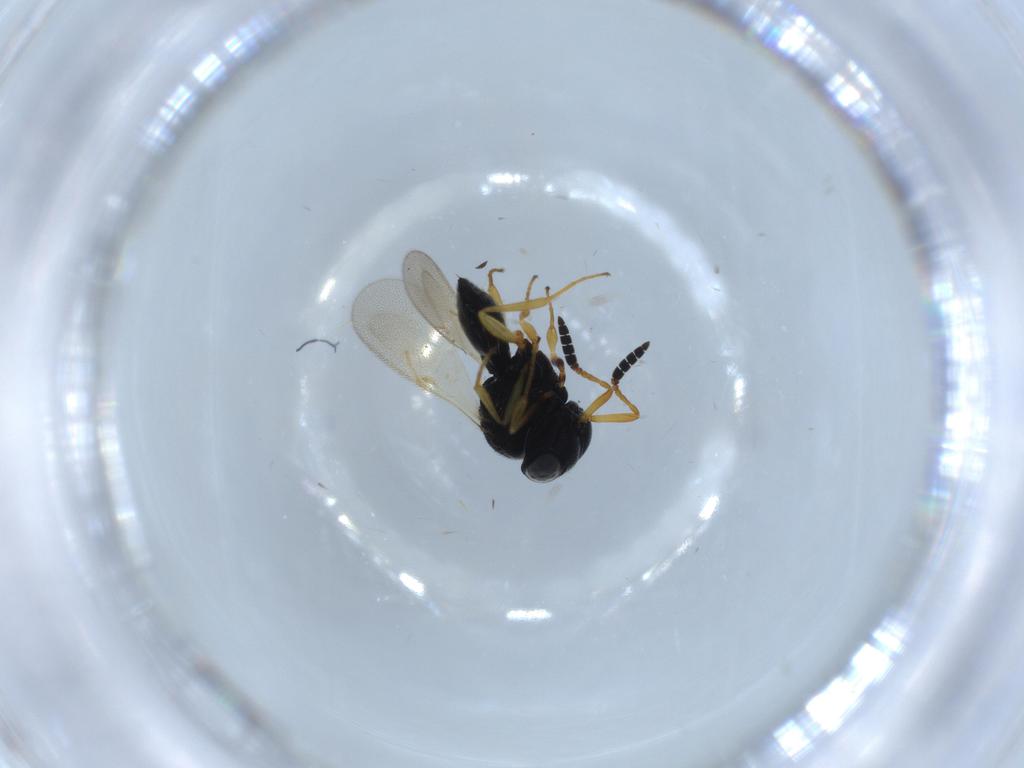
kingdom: Animalia
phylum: Arthropoda
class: Insecta
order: Hymenoptera
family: Scelionidae
